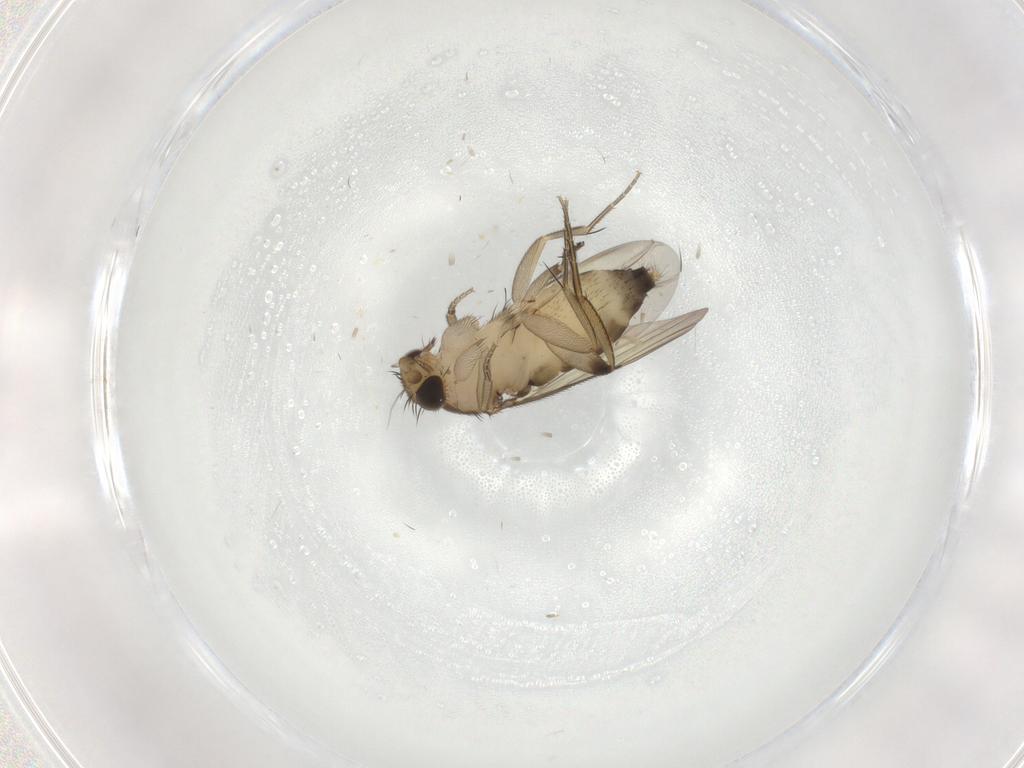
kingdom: Animalia
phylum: Arthropoda
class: Insecta
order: Diptera
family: Phoridae
